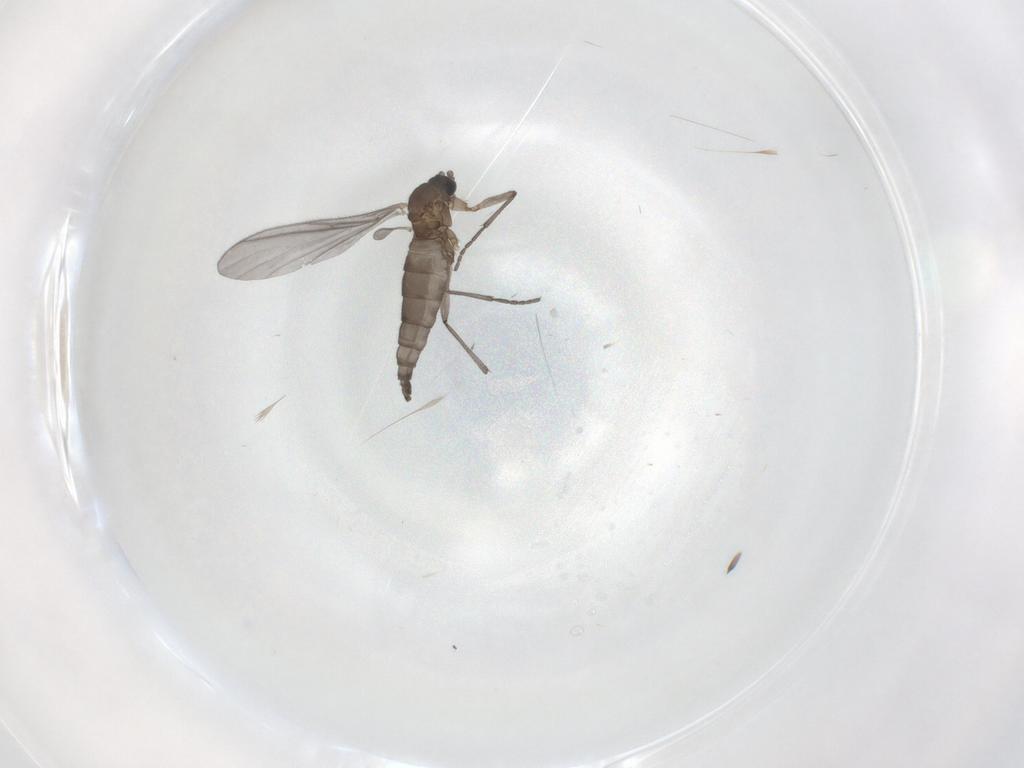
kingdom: Animalia
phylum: Arthropoda
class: Insecta
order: Diptera
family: Sciaridae
